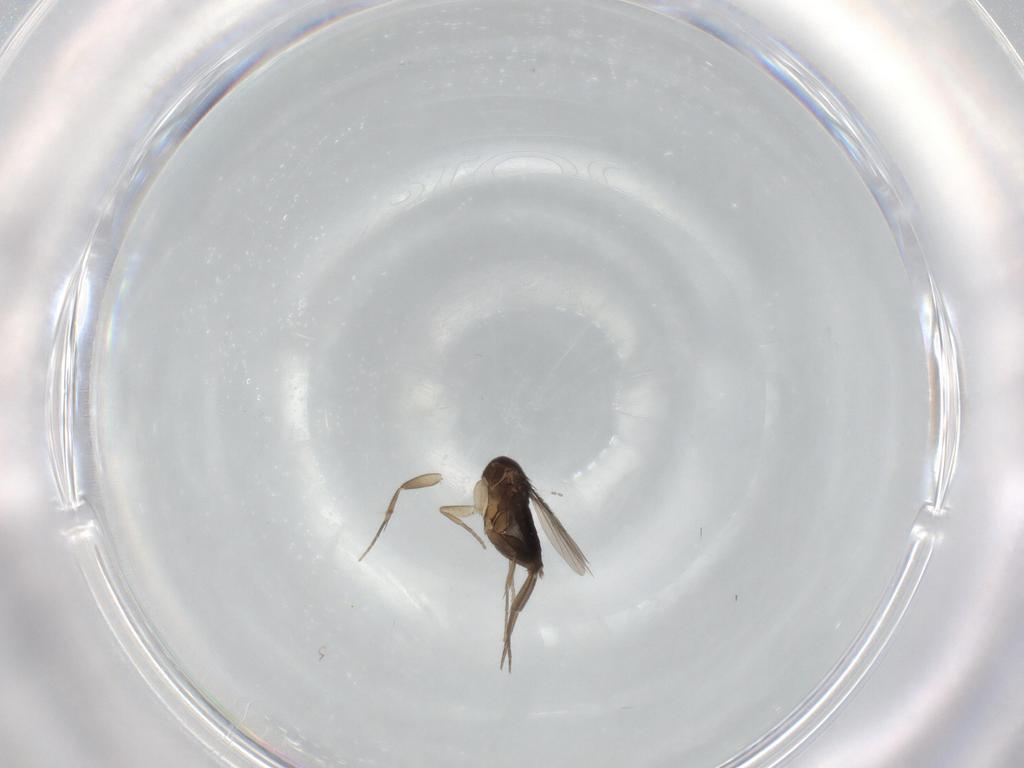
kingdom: Animalia
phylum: Arthropoda
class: Insecta
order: Diptera
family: Phoridae
